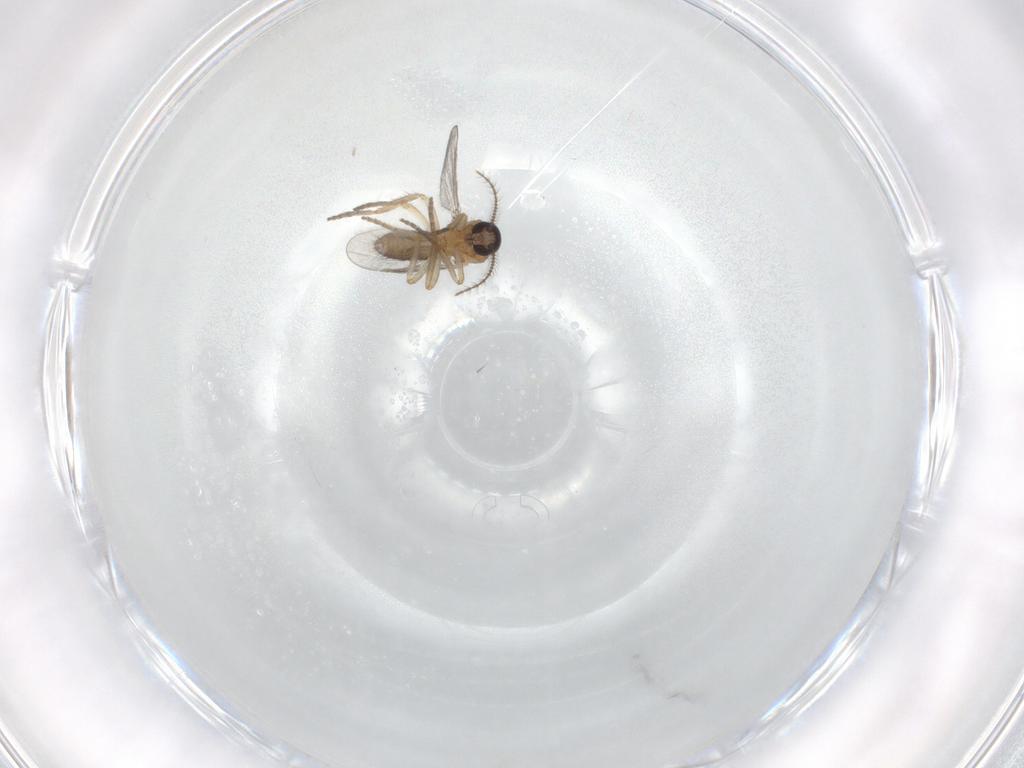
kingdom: Animalia
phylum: Arthropoda
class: Insecta
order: Diptera
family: Ceratopogonidae
